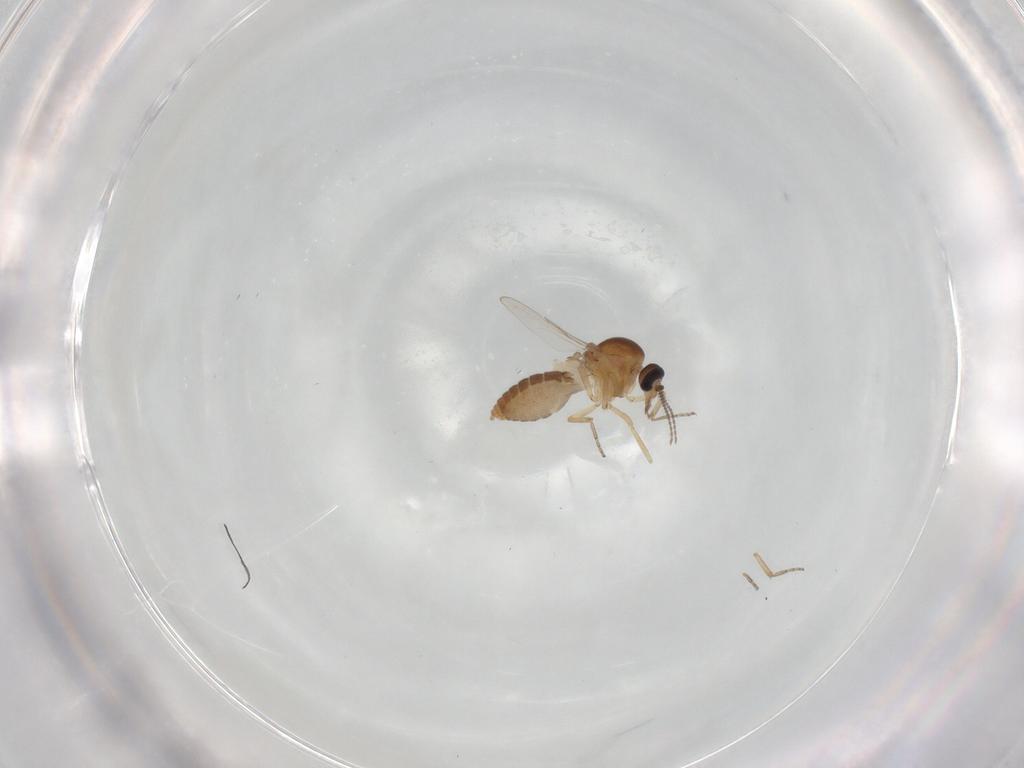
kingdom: Animalia
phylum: Arthropoda
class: Insecta
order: Diptera
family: Ceratopogonidae
